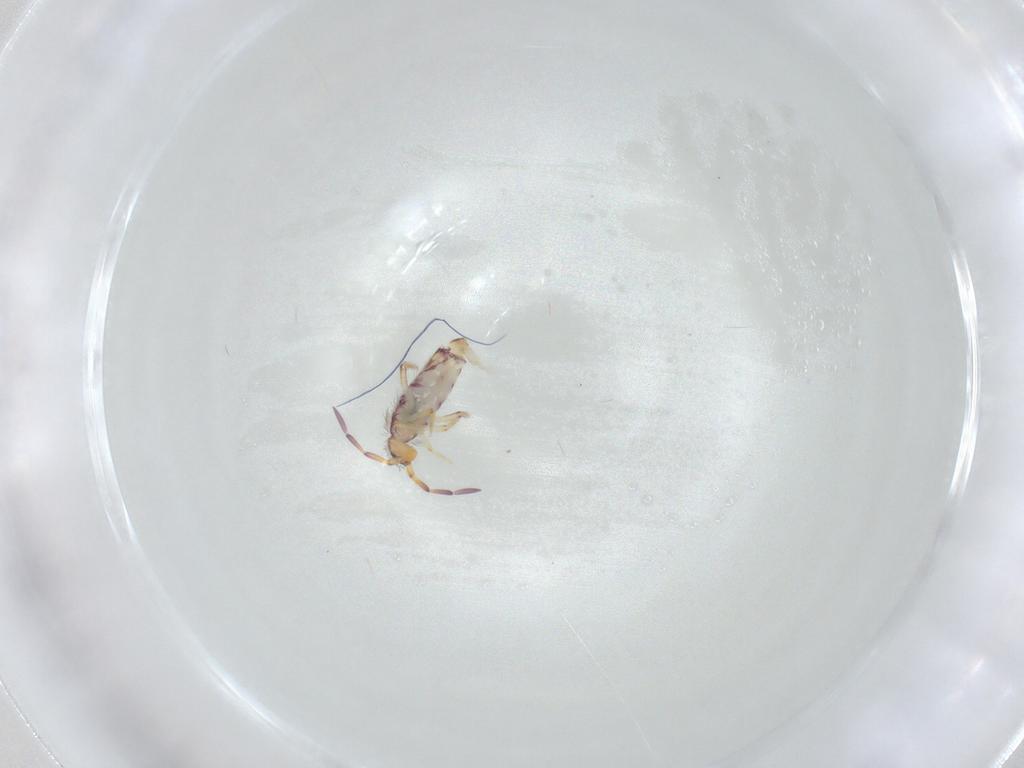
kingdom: Animalia
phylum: Arthropoda
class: Collembola
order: Entomobryomorpha
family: Entomobryidae
